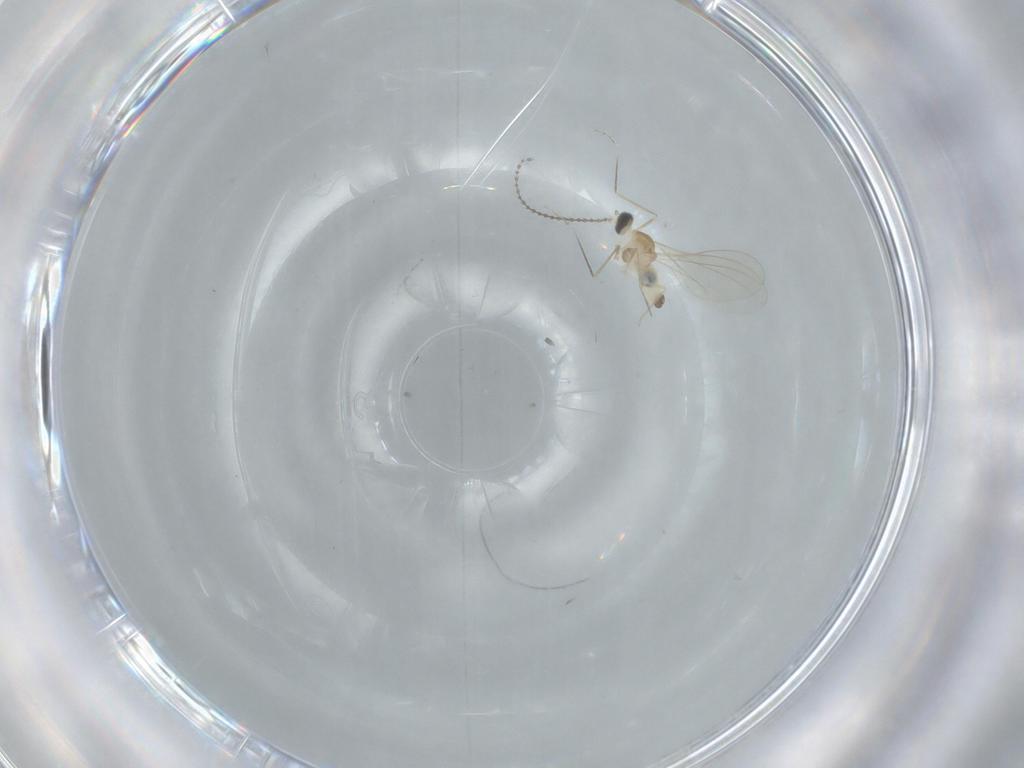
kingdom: Animalia
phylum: Arthropoda
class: Insecta
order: Diptera
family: Cecidomyiidae
